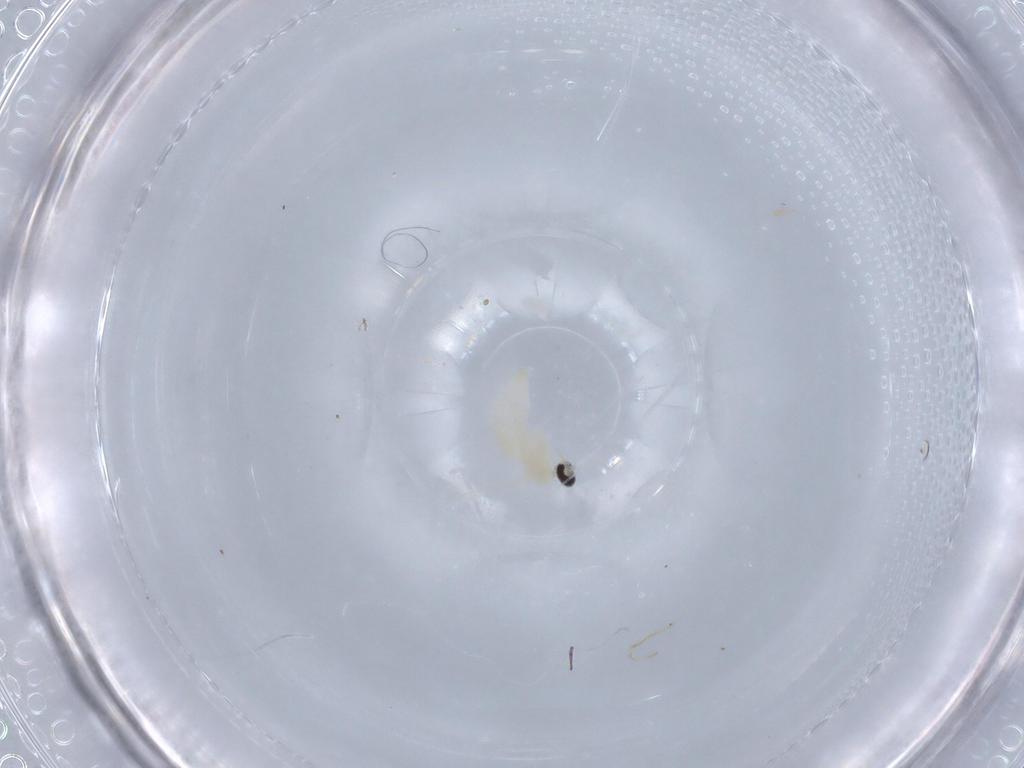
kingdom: Animalia
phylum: Arthropoda
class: Insecta
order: Diptera
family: Cecidomyiidae
